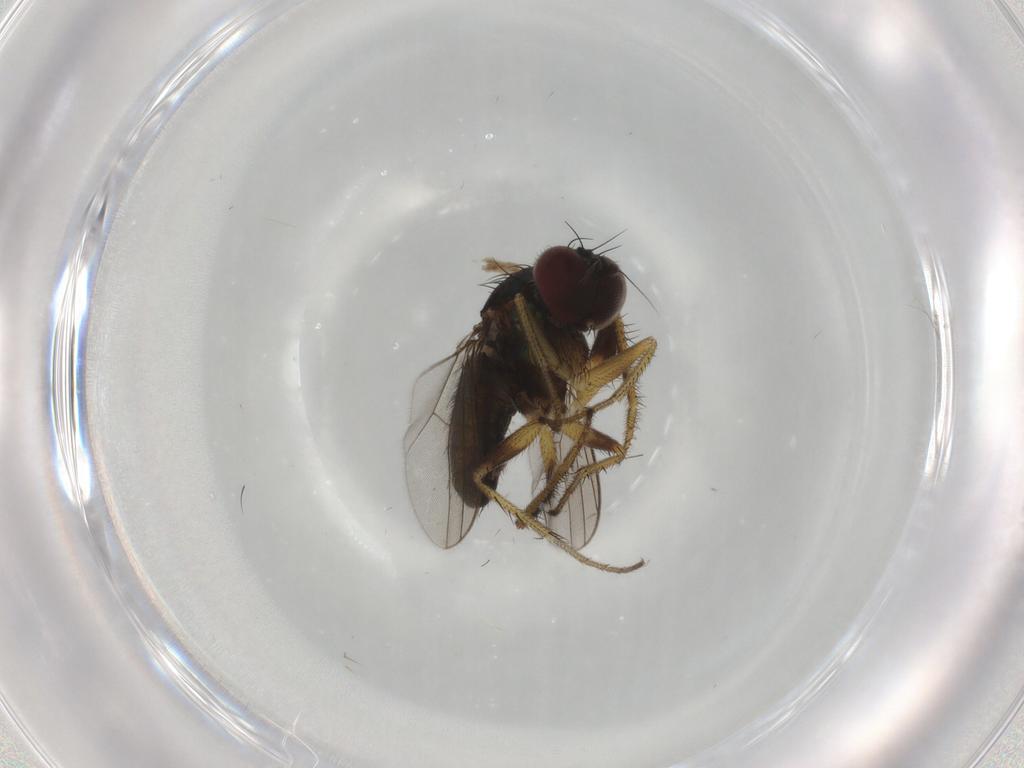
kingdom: Animalia
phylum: Arthropoda
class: Insecta
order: Diptera
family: Dolichopodidae
